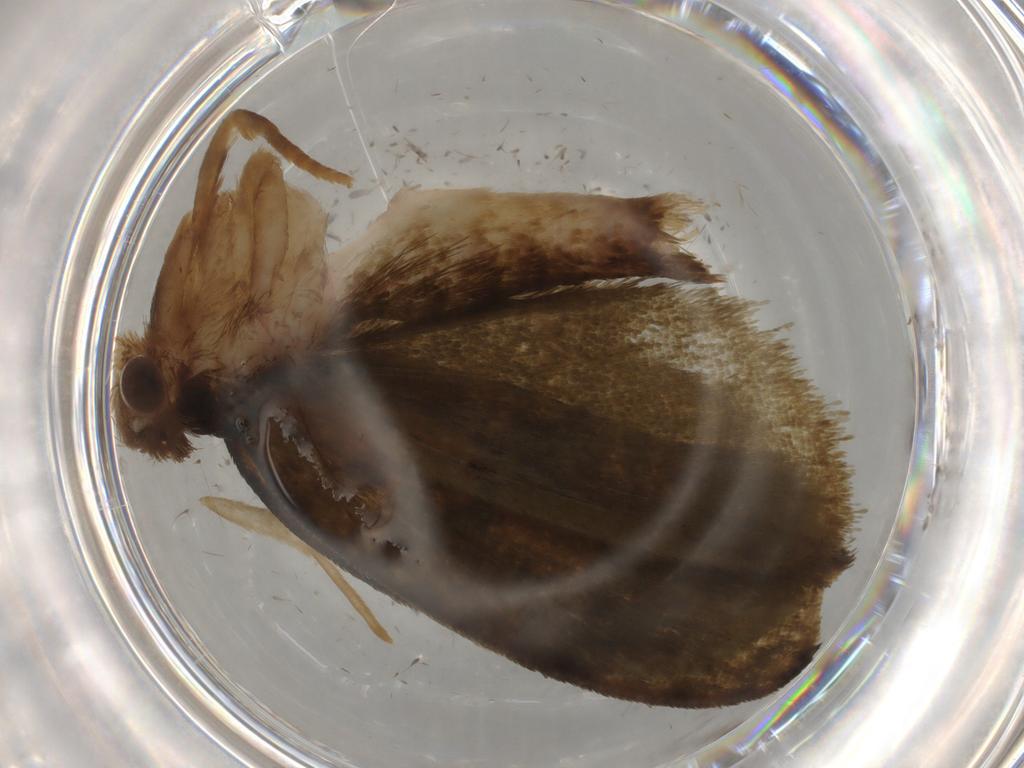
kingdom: Animalia
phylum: Arthropoda
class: Insecta
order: Lepidoptera
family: Geometridae
